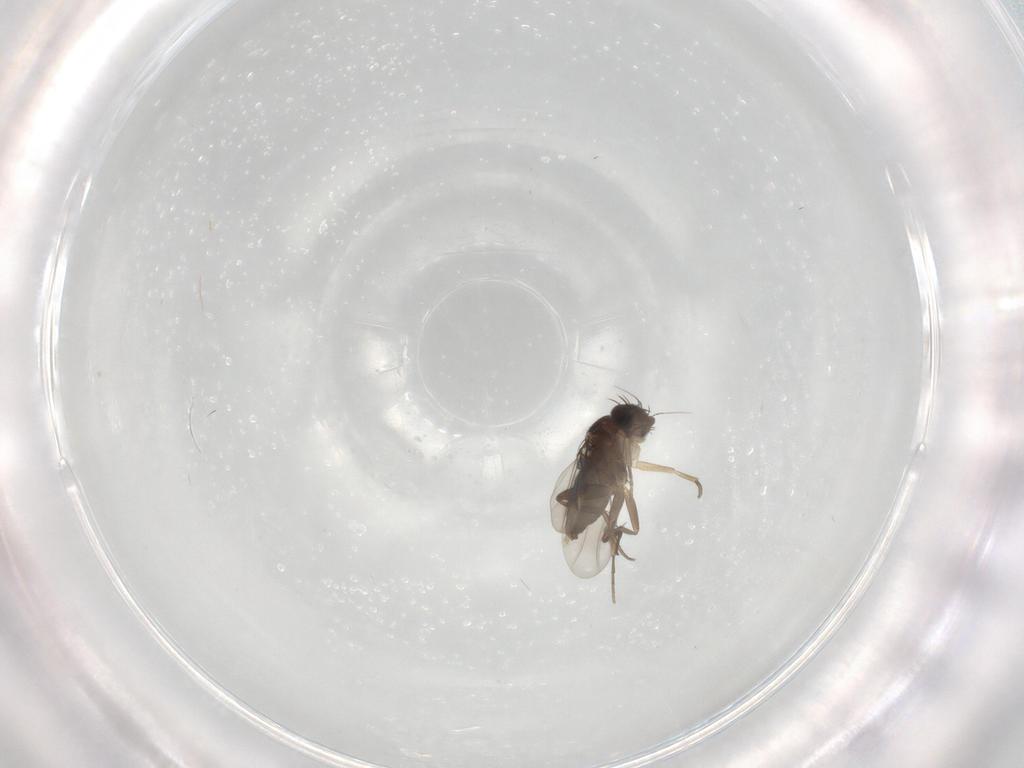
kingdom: Animalia
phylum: Arthropoda
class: Insecta
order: Diptera
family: Phoridae
